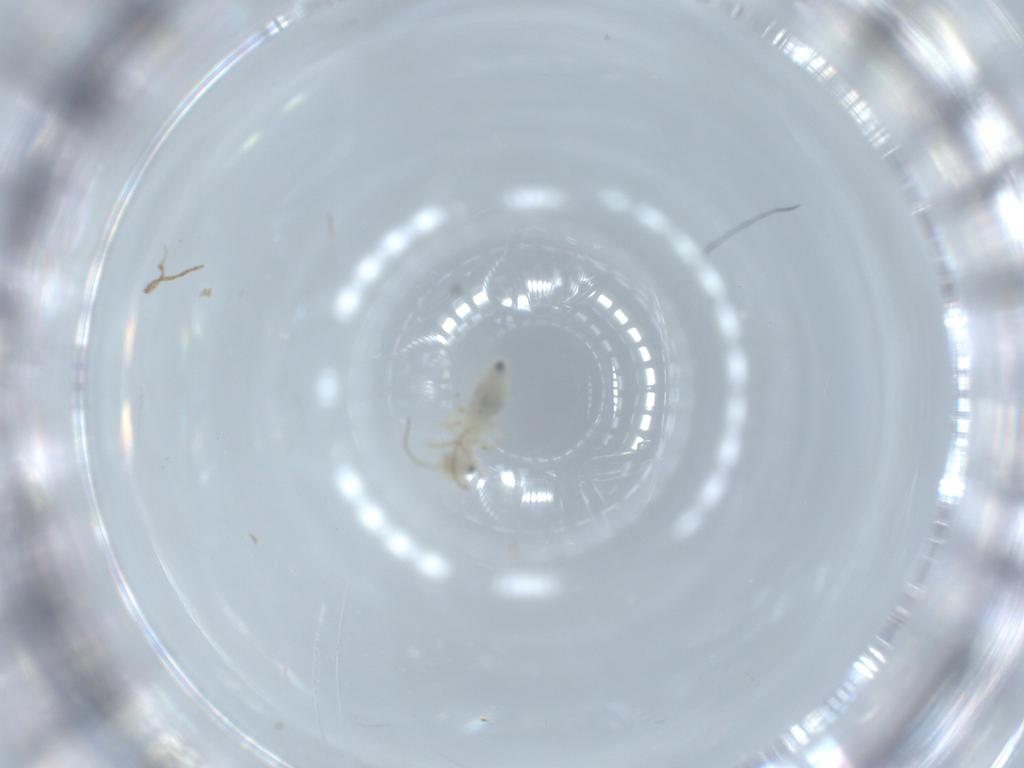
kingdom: Animalia
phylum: Arthropoda
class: Insecta
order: Psocodea
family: Caeciliusidae
